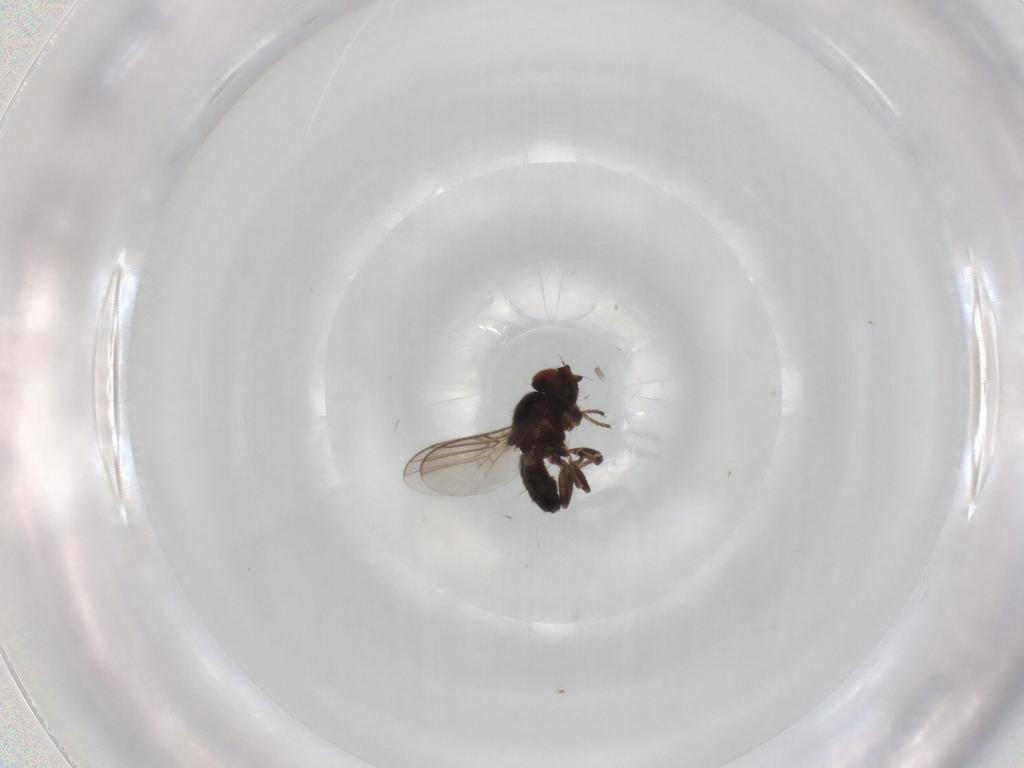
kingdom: Animalia
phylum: Arthropoda
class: Insecta
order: Diptera
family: Chloropidae
